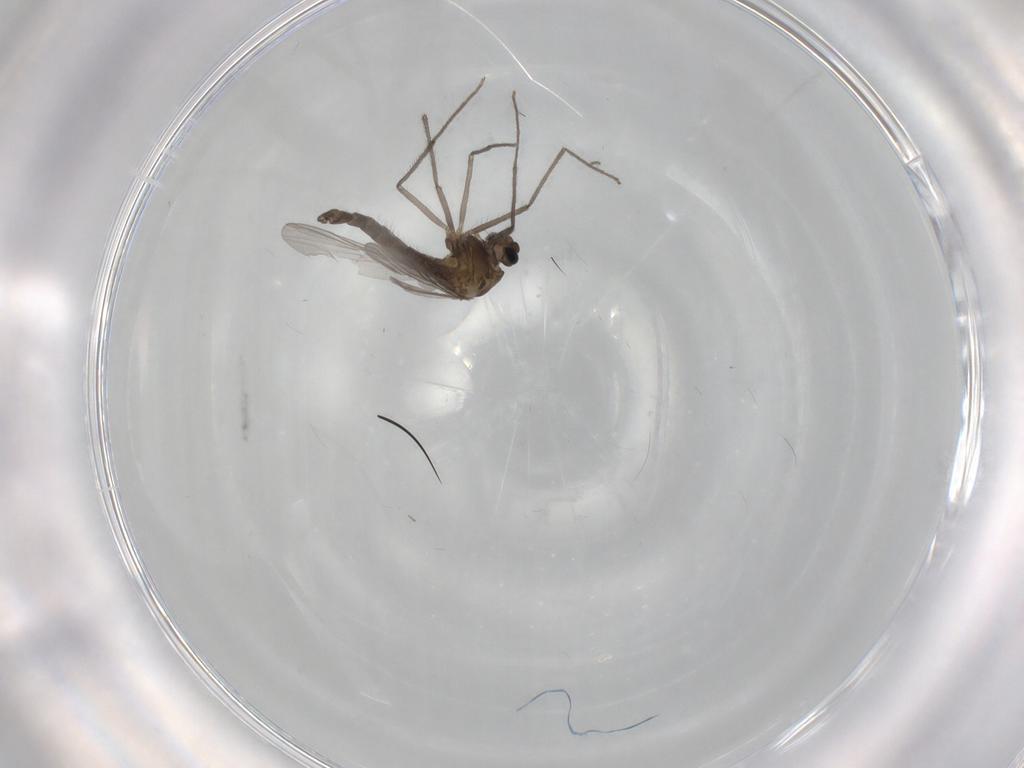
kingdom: Animalia
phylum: Arthropoda
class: Insecta
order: Diptera
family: Chironomidae
